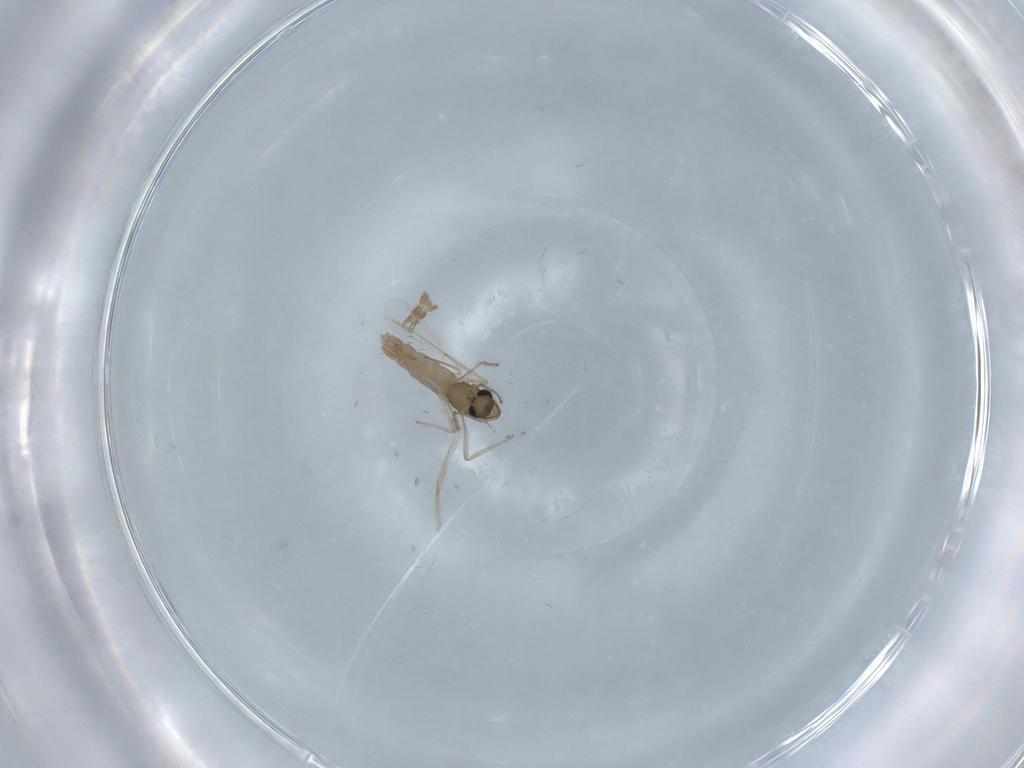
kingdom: Animalia
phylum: Arthropoda
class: Insecta
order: Diptera
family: Chironomidae
